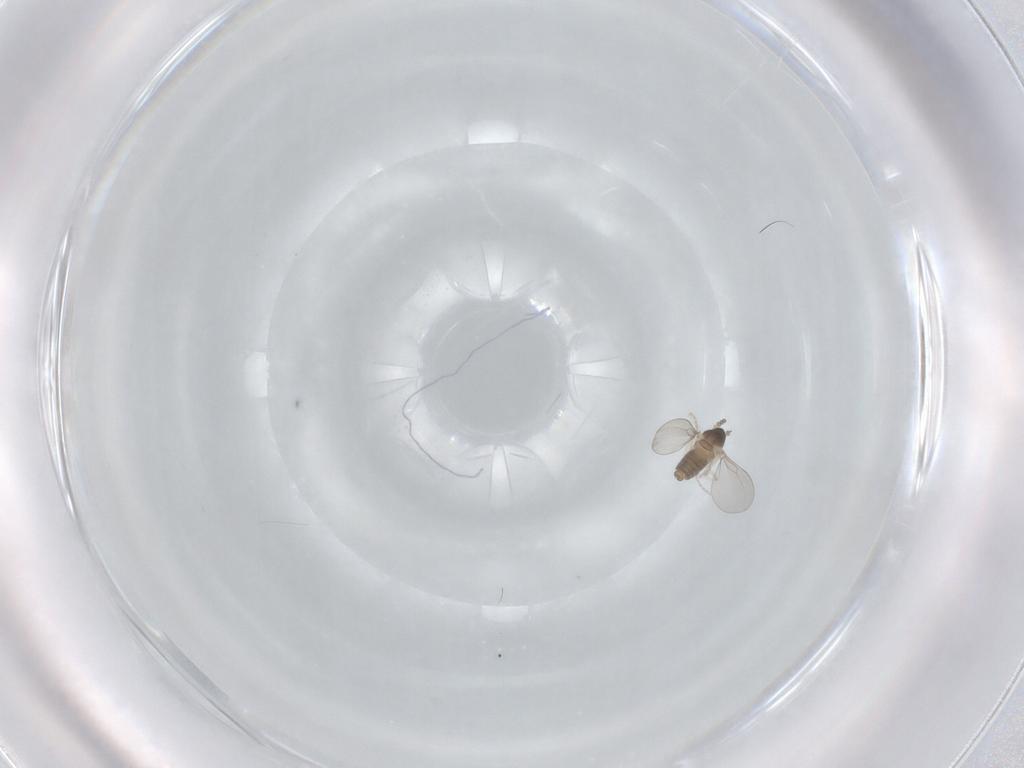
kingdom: Animalia
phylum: Arthropoda
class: Insecta
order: Diptera
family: Cecidomyiidae
